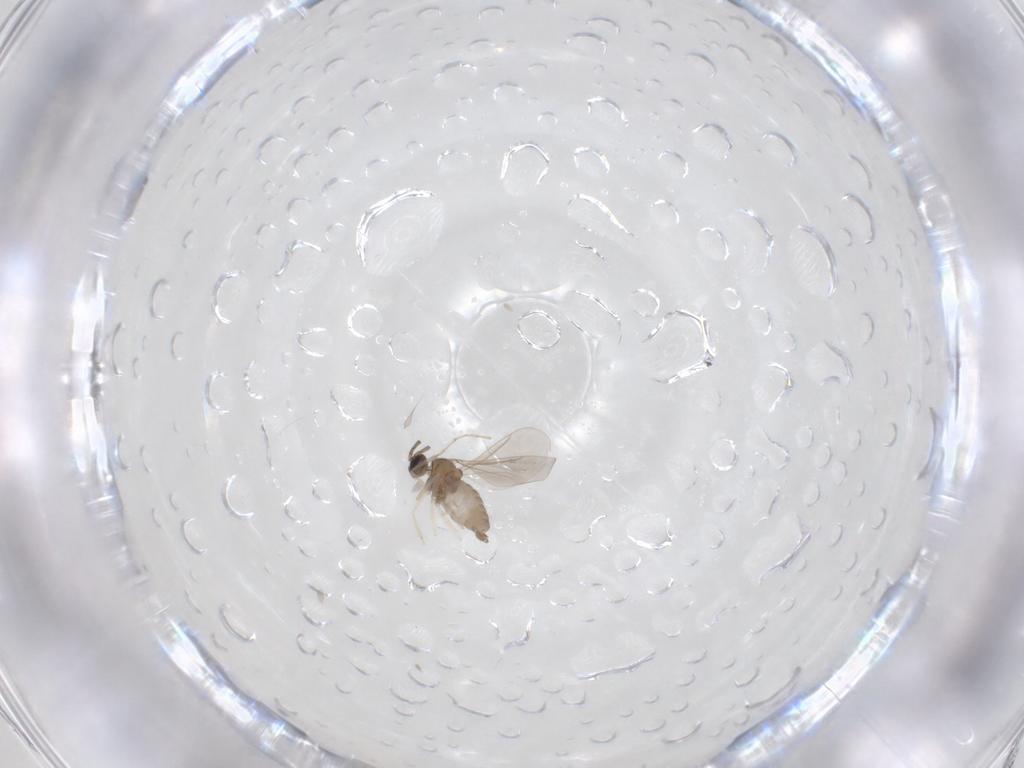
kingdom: Animalia
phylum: Arthropoda
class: Insecta
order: Diptera
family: Cecidomyiidae
